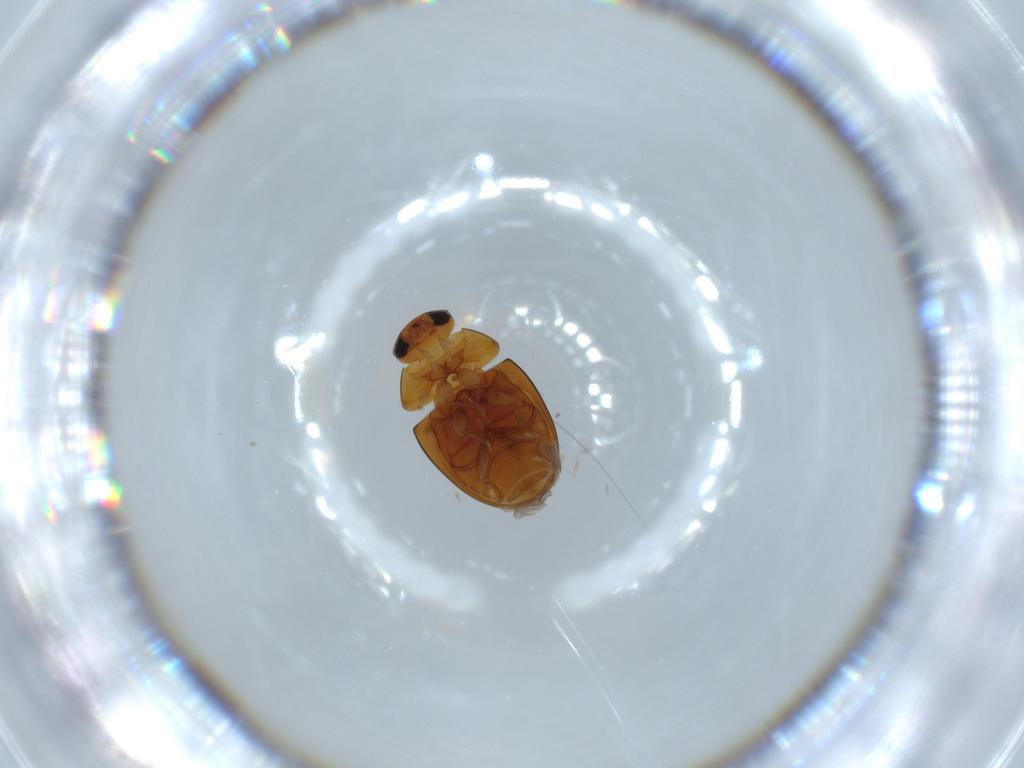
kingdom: Animalia
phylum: Arthropoda
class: Insecta
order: Coleoptera
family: Phalacridae
